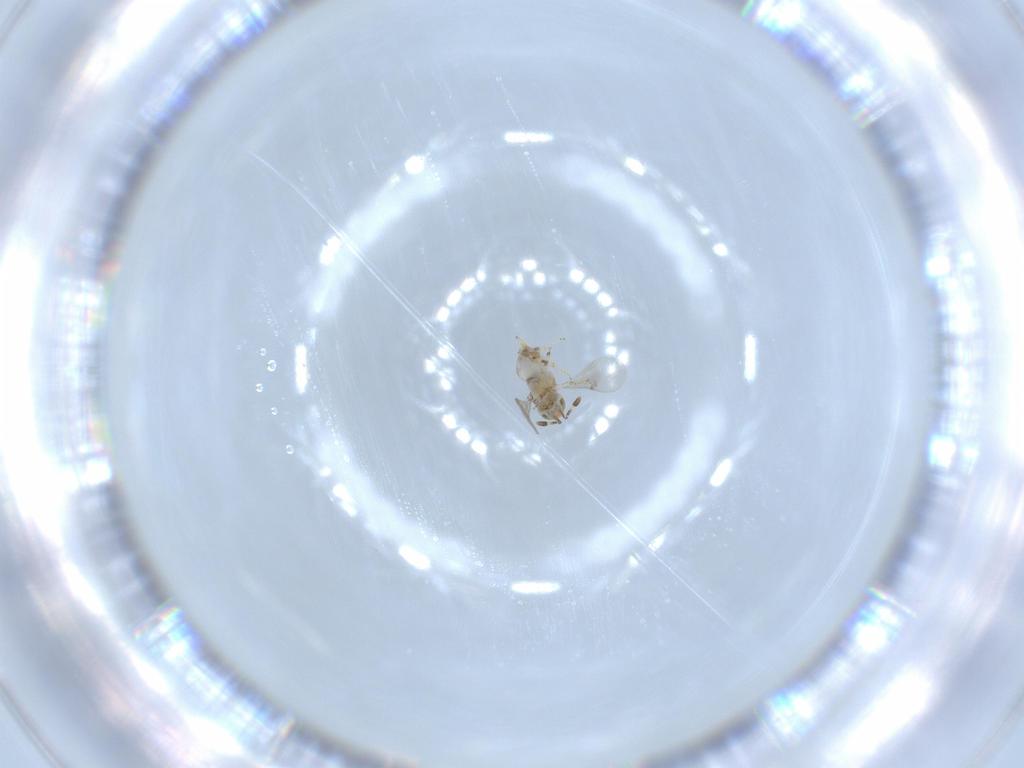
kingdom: Animalia
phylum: Arthropoda
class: Insecta
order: Hymenoptera
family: Encyrtidae
